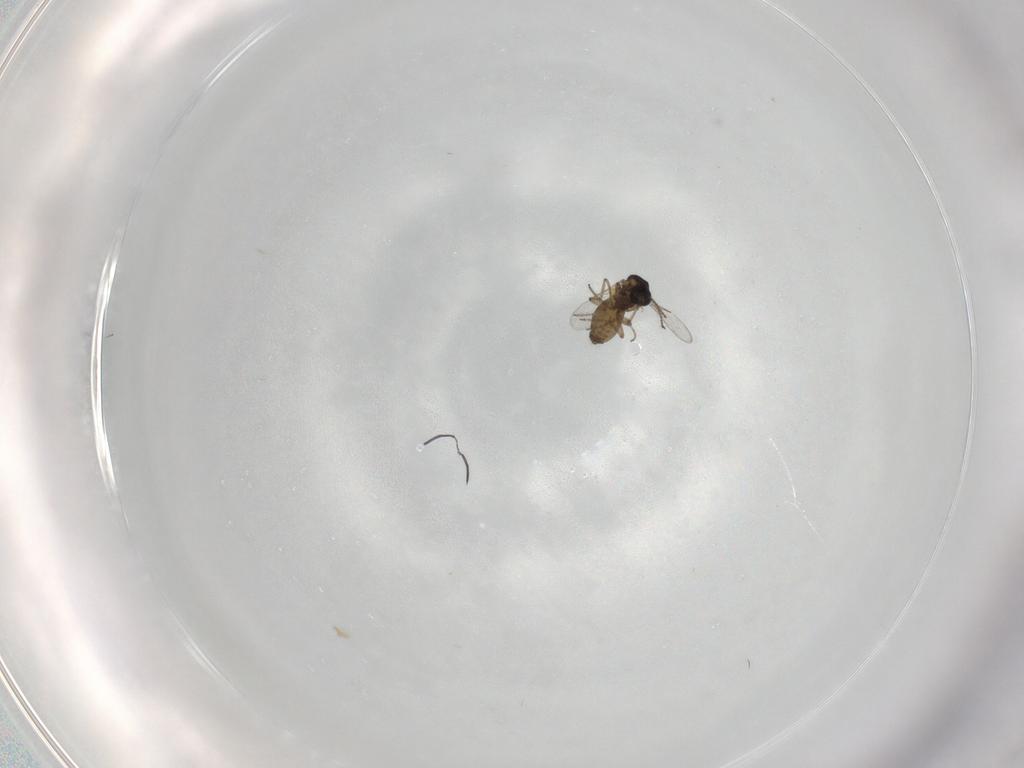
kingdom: Animalia
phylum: Arthropoda
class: Insecta
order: Diptera
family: Ceratopogonidae
